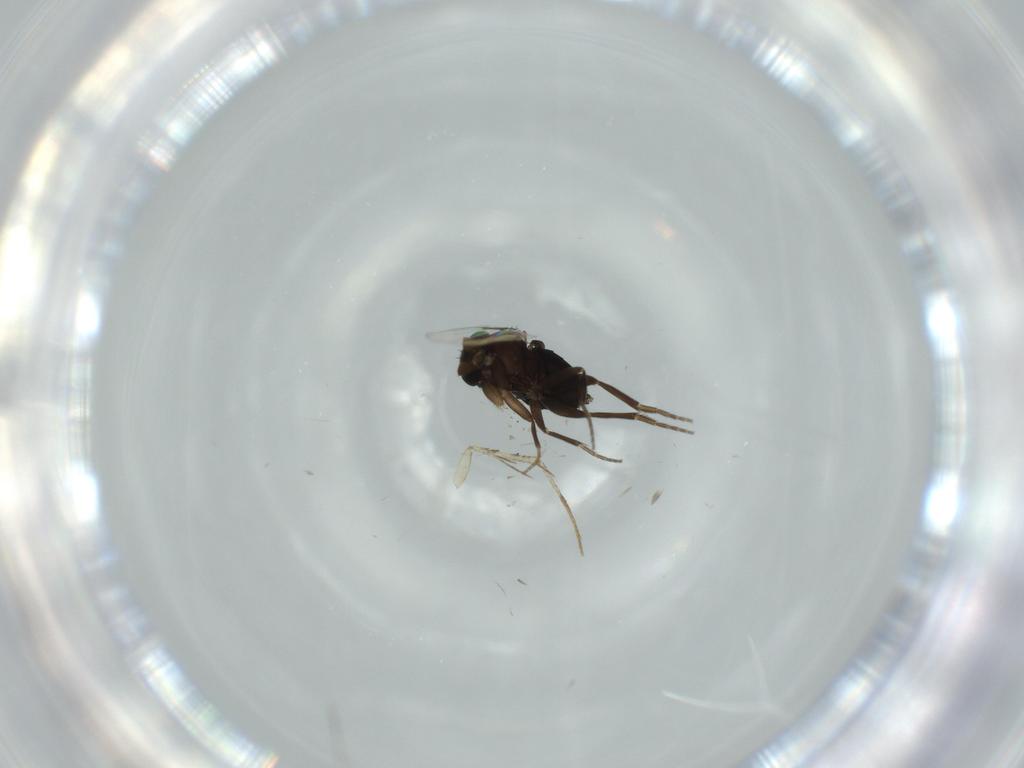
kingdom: Animalia
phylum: Arthropoda
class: Insecta
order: Diptera
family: Phoridae
